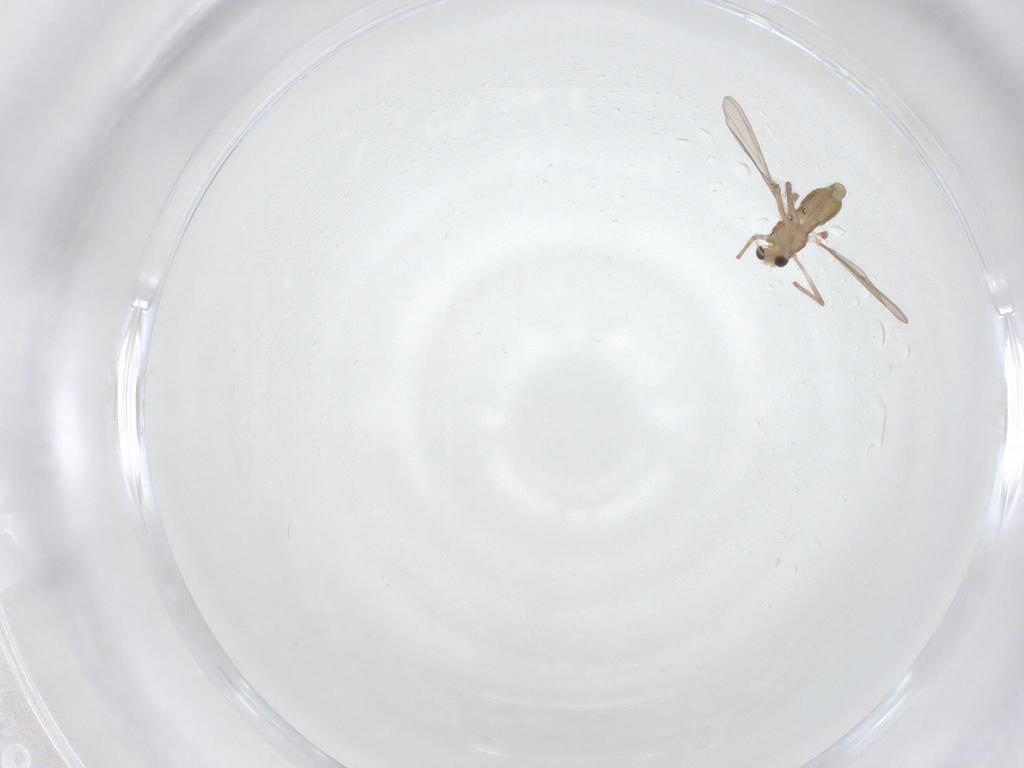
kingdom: Animalia
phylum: Arthropoda
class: Insecta
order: Diptera
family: Chironomidae
